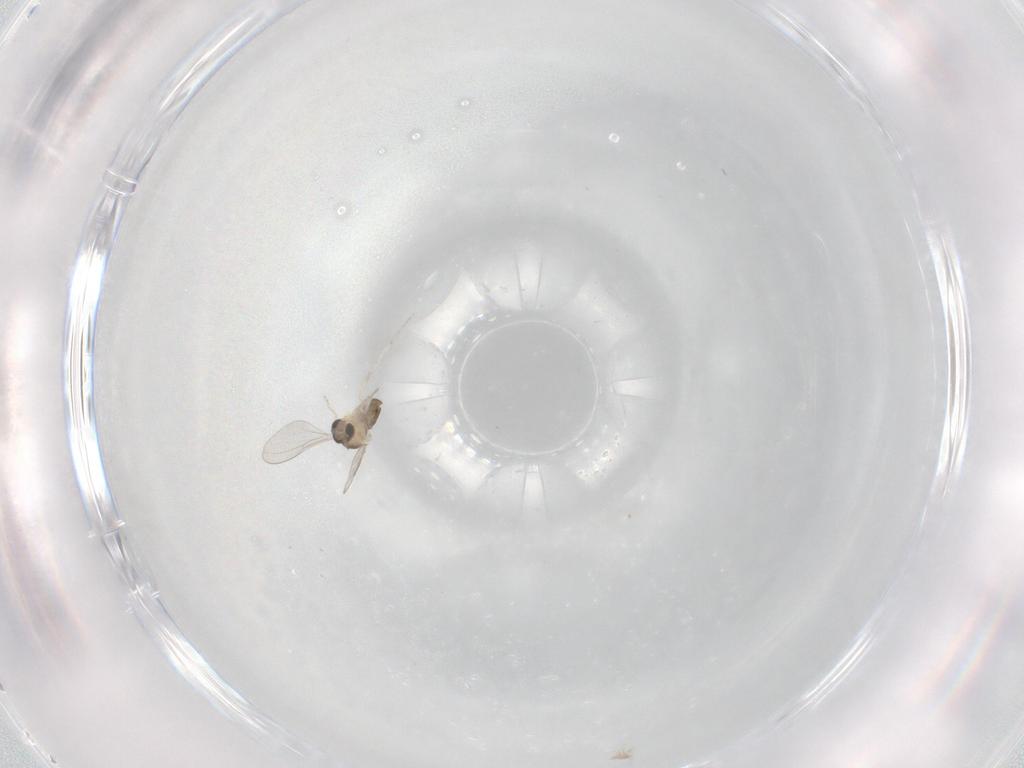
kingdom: Animalia
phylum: Arthropoda
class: Insecta
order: Diptera
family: Cecidomyiidae
